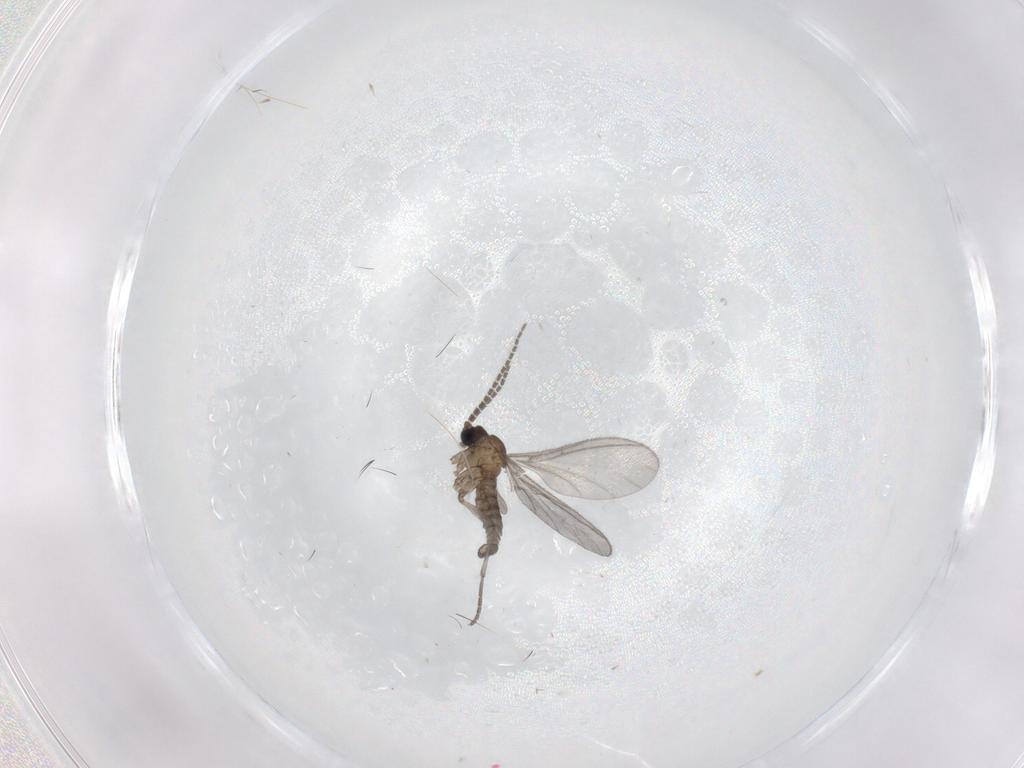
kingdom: Animalia
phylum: Arthropoda
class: Insecta
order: Diptera
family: Sciaridae
